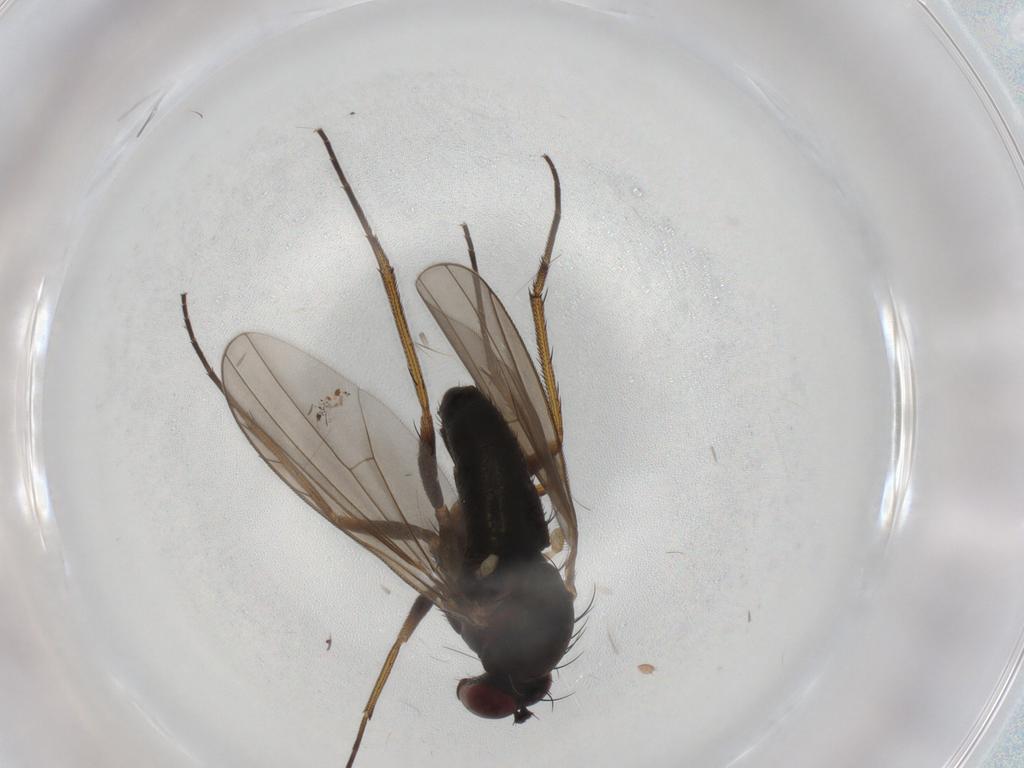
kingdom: Animalia
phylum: Arthropoda
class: Insecta
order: Diptera
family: Dolichopodidae
